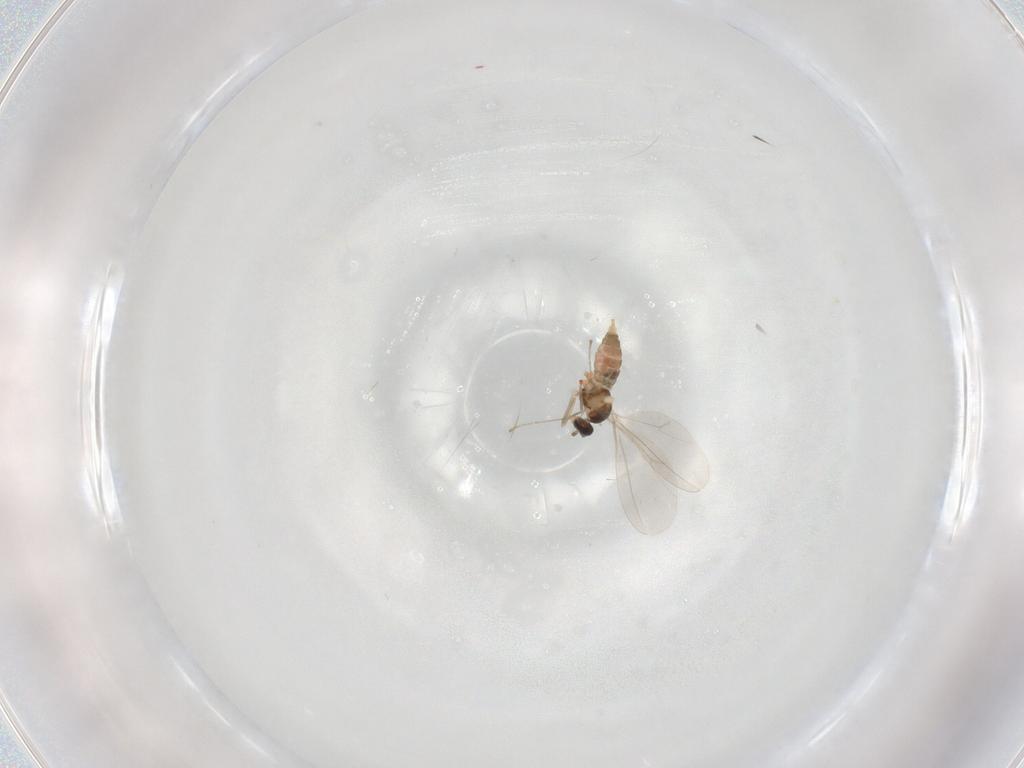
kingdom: Animalia
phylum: Arthropoda
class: Insecta
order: Diptera
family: Cecidomyiidae
